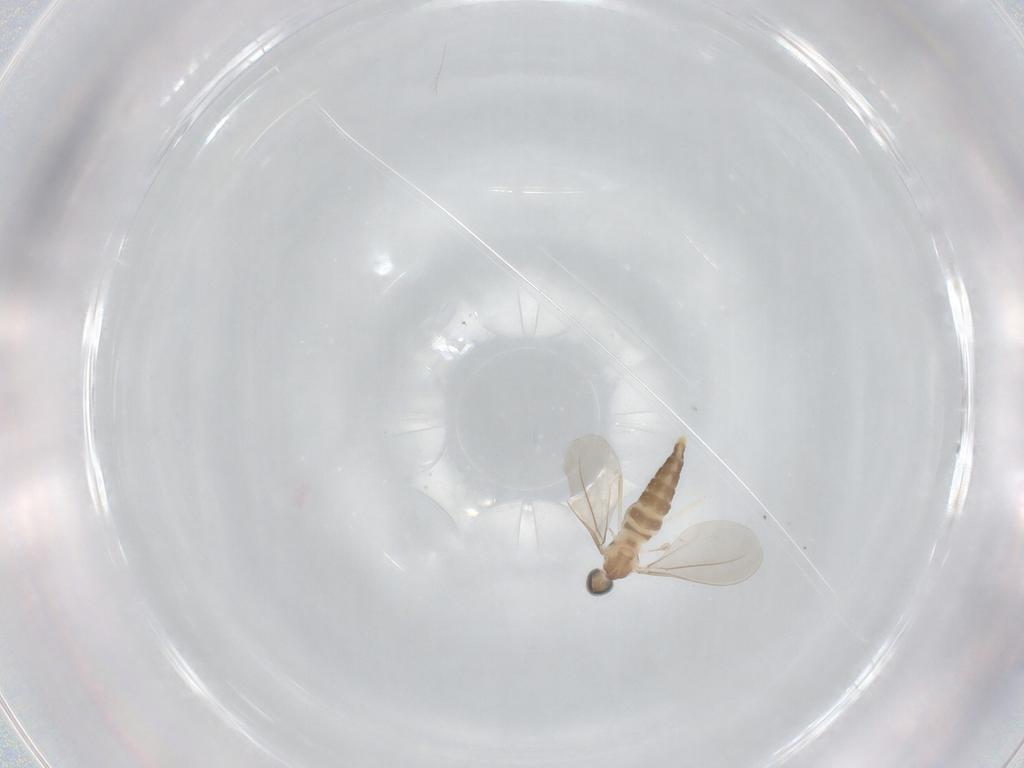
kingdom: Animalia
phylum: Arthropoda
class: Insecta
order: Diptera
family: Cecidomyiidae
